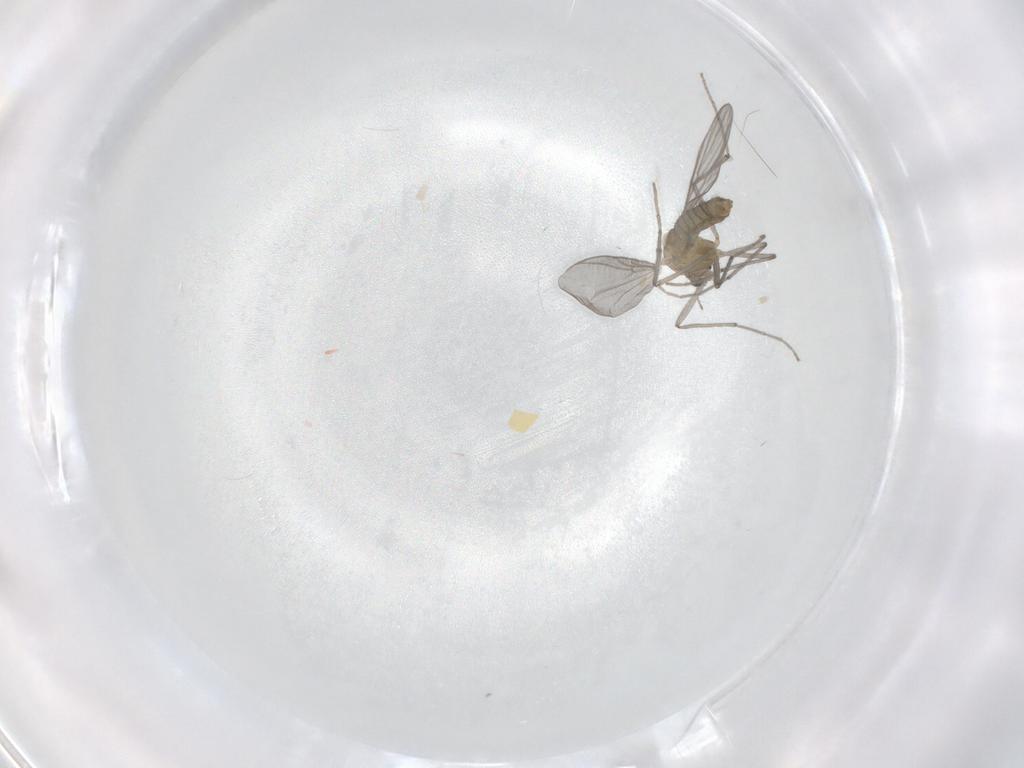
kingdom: Animalia
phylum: Arthropoda
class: Insecta
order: Diptera
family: Chironomidae
